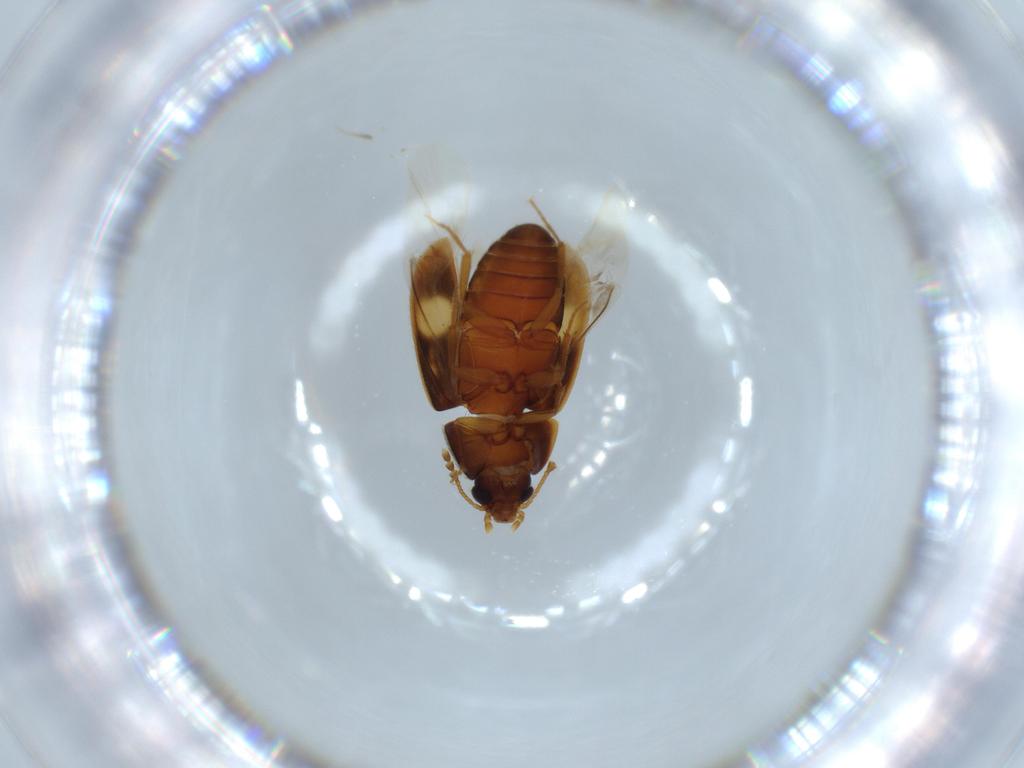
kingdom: Animalia
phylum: Arthropoda
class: Insecta
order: Coleoptera
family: Mycetophagidae
